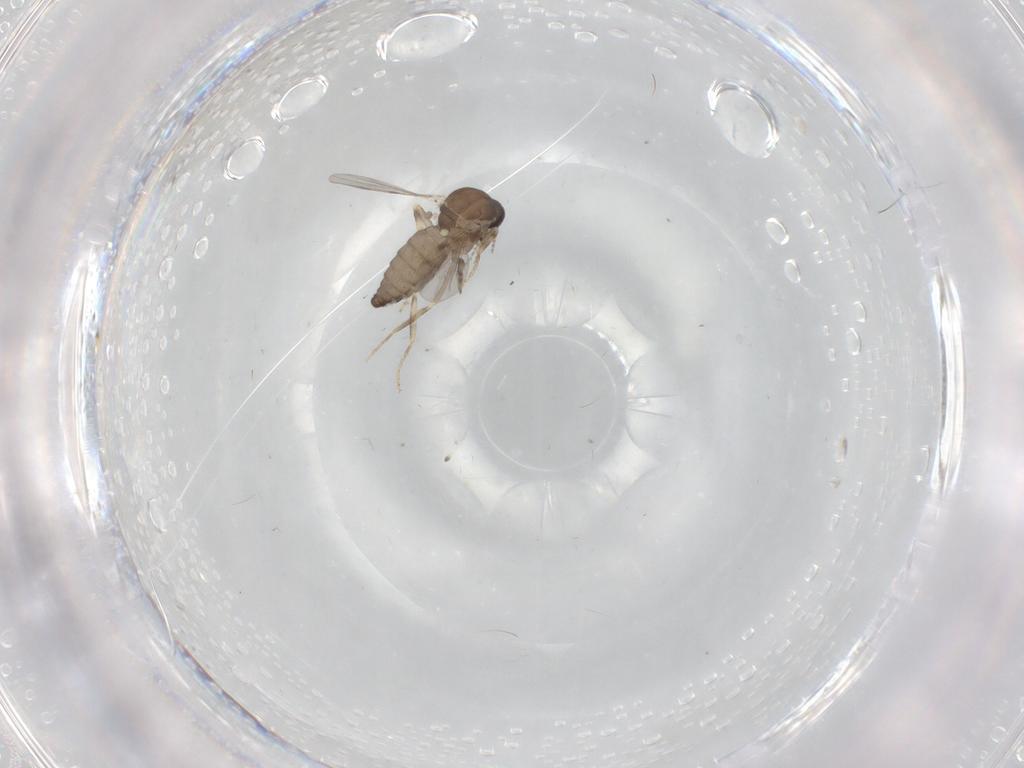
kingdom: Animalia
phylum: Arthropoda
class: Insecta
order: Diptera
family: Ceratopogonidae
